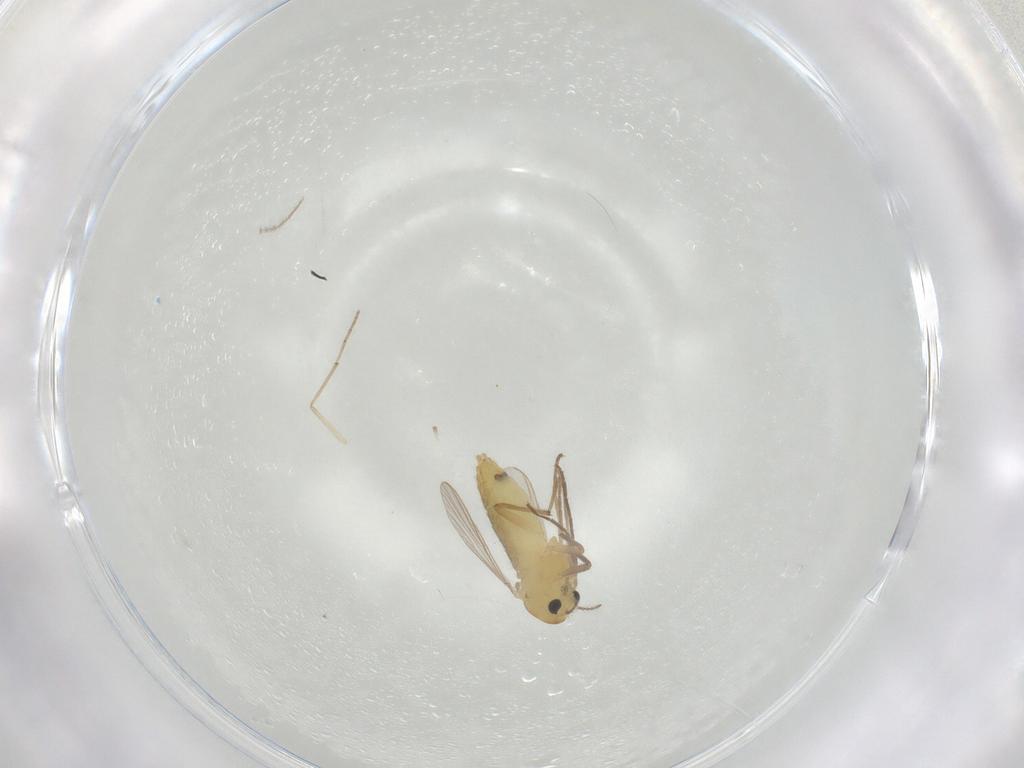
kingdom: Animalia
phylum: Arthropoda
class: Insecta
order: Diptera
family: Chironomidae
